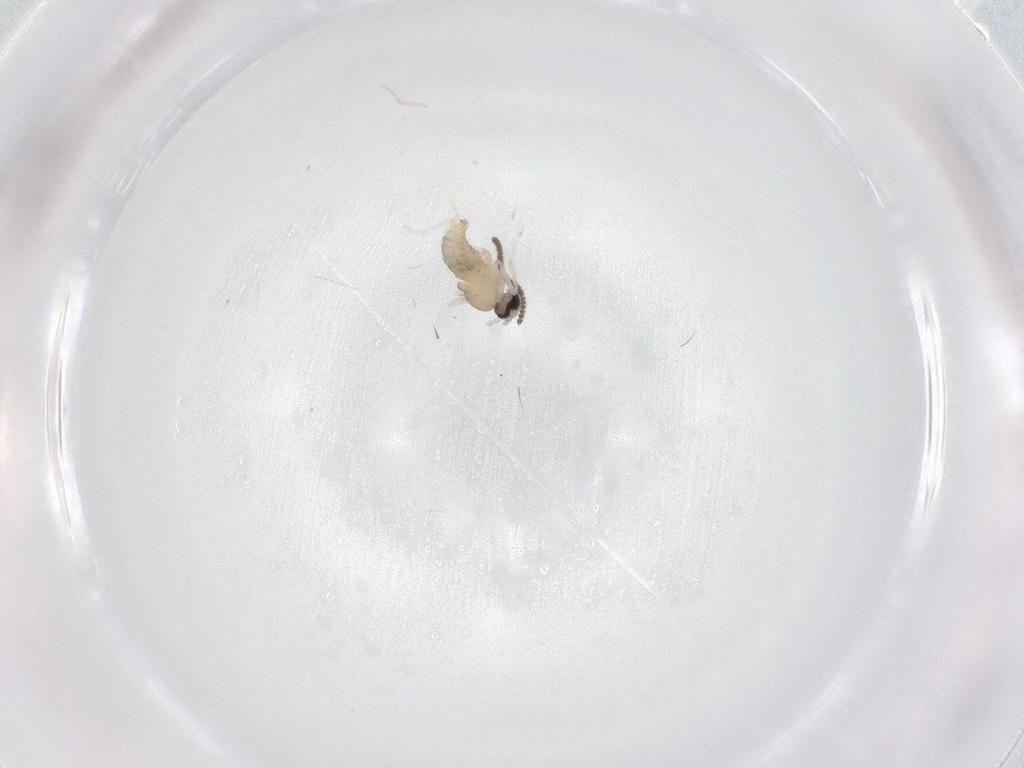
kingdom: Animalia
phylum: Arthropoda
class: Insecta
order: Diptera
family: Cecidomyiidae
